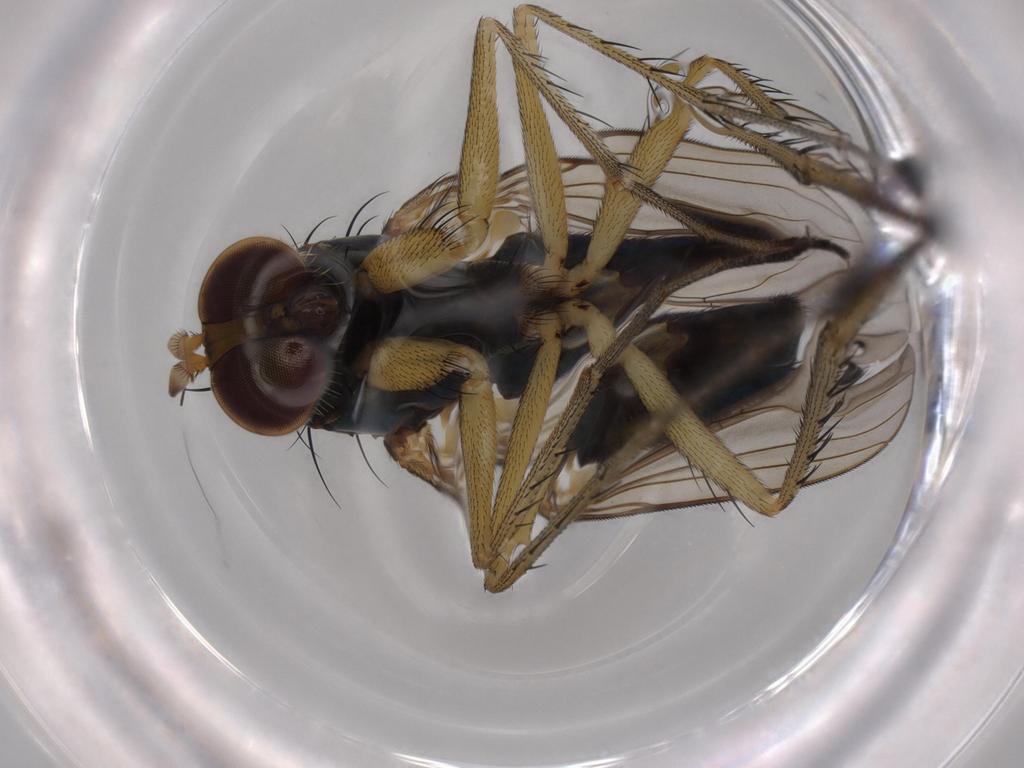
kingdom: Animalia
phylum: Arthropoda
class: Insecta
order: Diptera
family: Dolichopodidae
